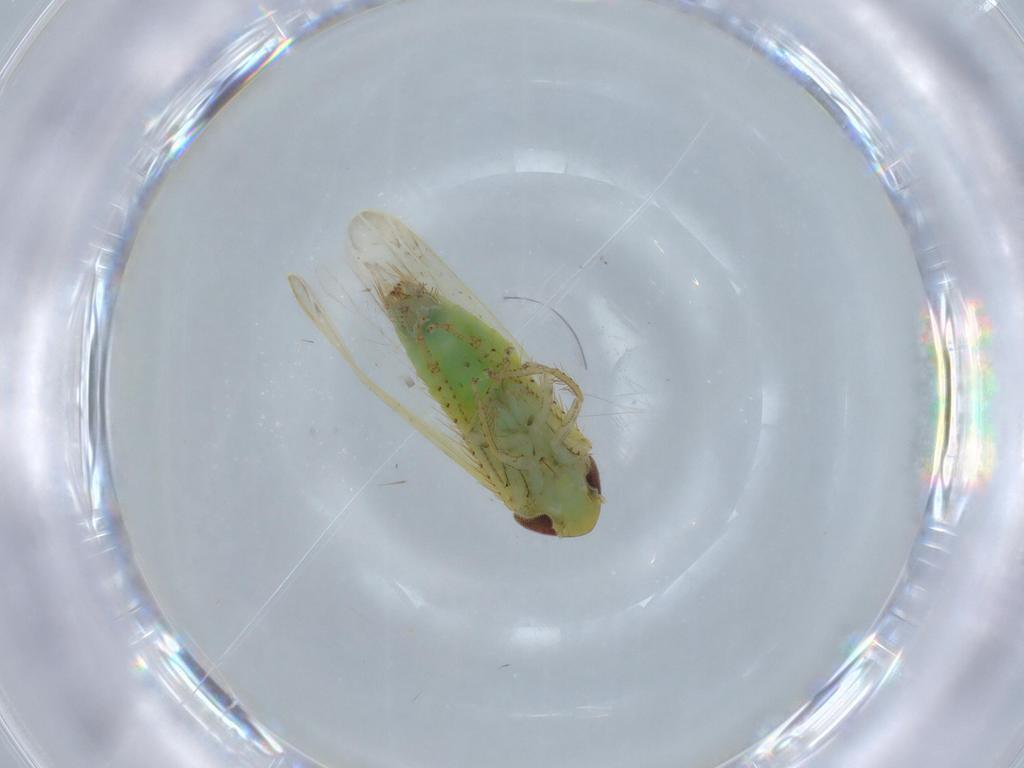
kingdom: Animalia
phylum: Arthropoda
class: Insecta
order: Hemiptera
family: Cicadellidae
